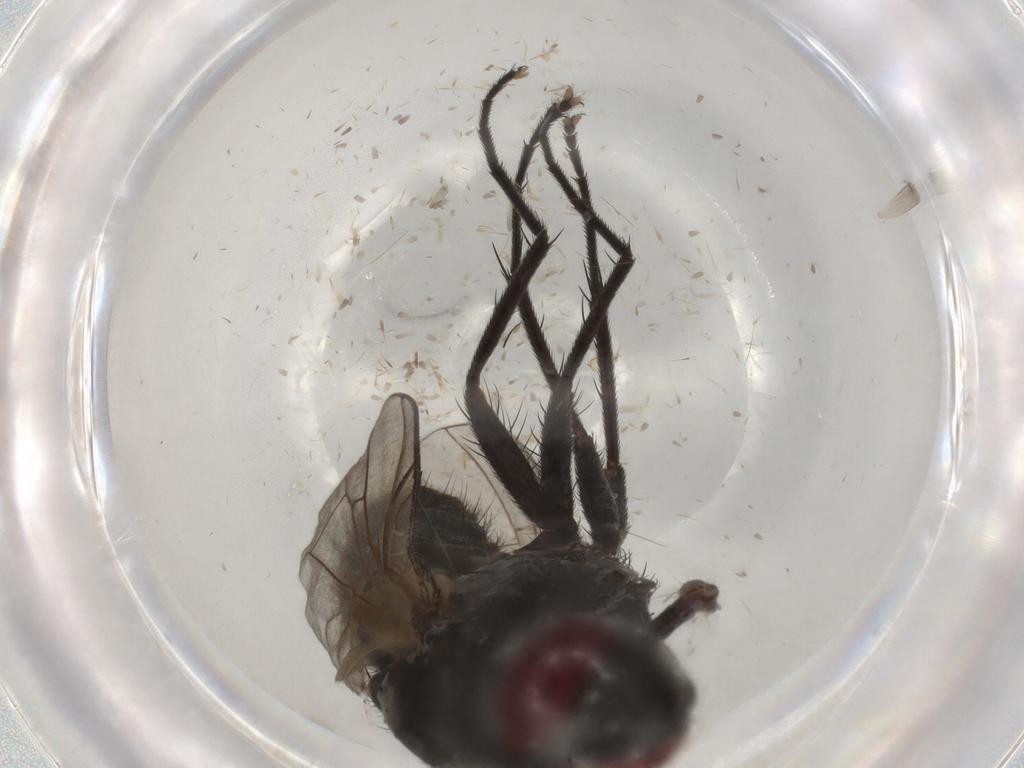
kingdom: Animalia
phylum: Arthropoda
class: Insecta
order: Diptera
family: Muscidae
